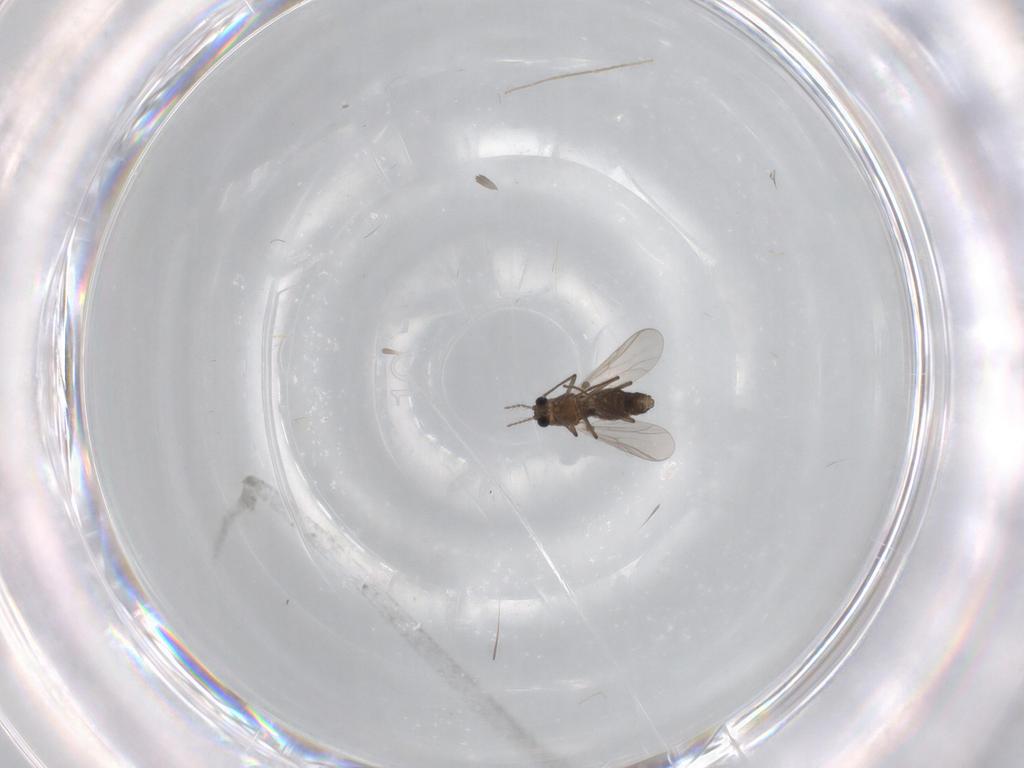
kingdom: Animalia
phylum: Arthropoda
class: Insecta
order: Diptera
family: Chironomidae
